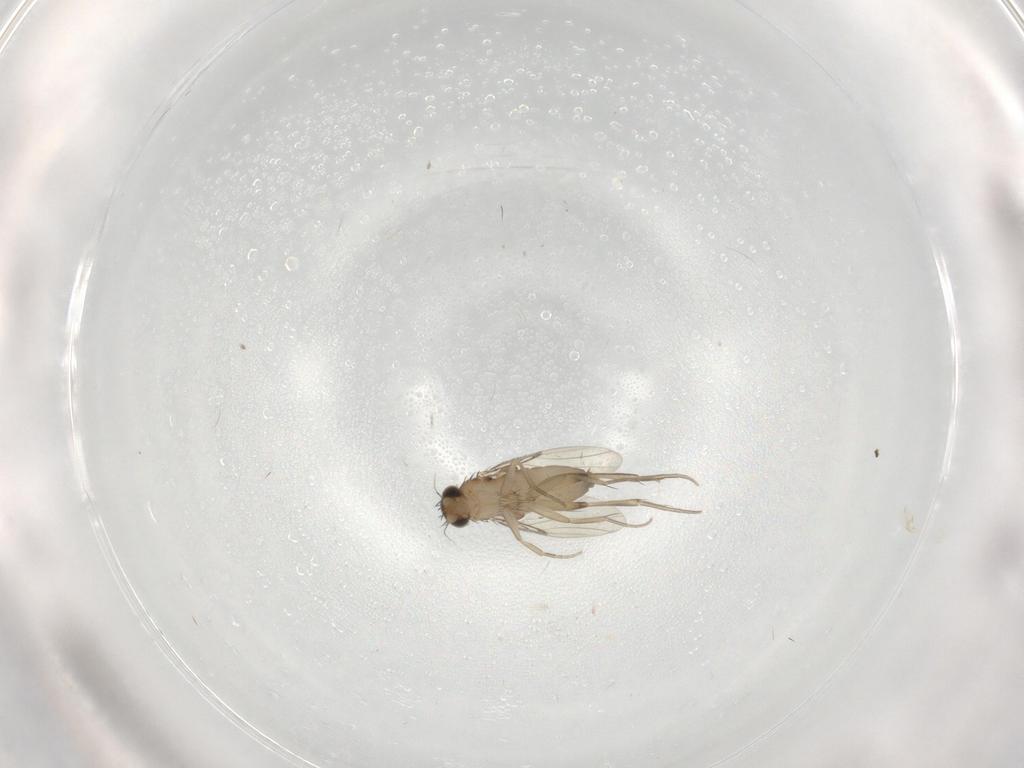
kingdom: Animalia
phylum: Arthropoda
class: Insecta
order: Diptera
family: Phoridae
